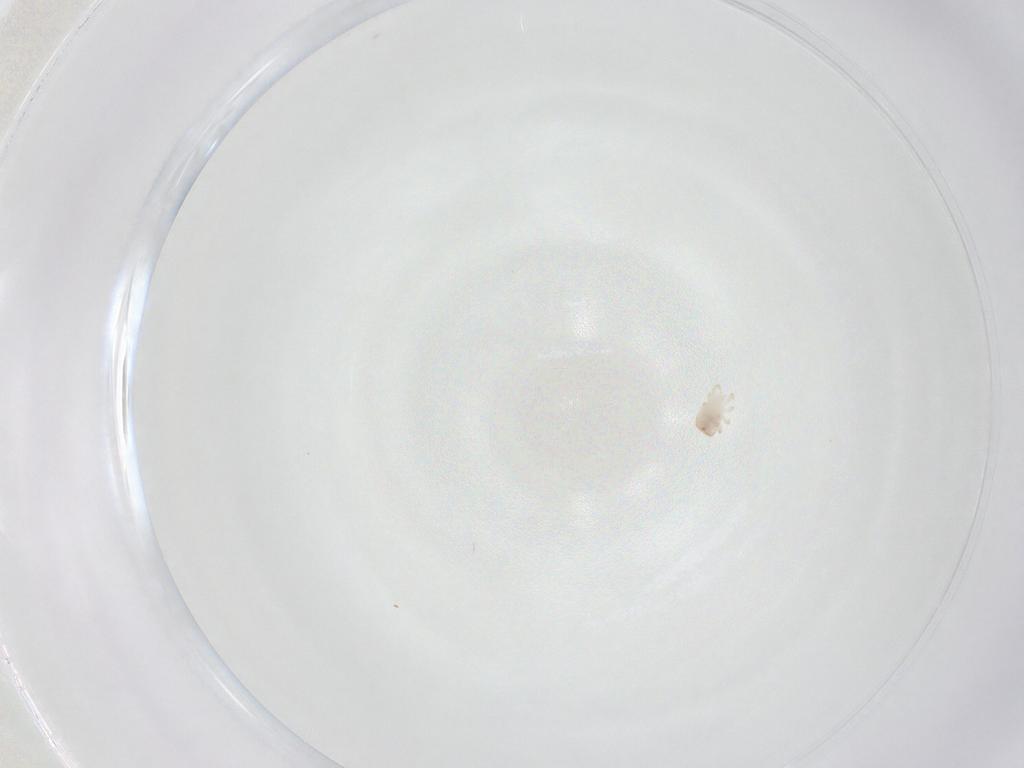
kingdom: Animalia
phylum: Arthropoda
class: Arachnida
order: Mesostigmata
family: Zerconidae
